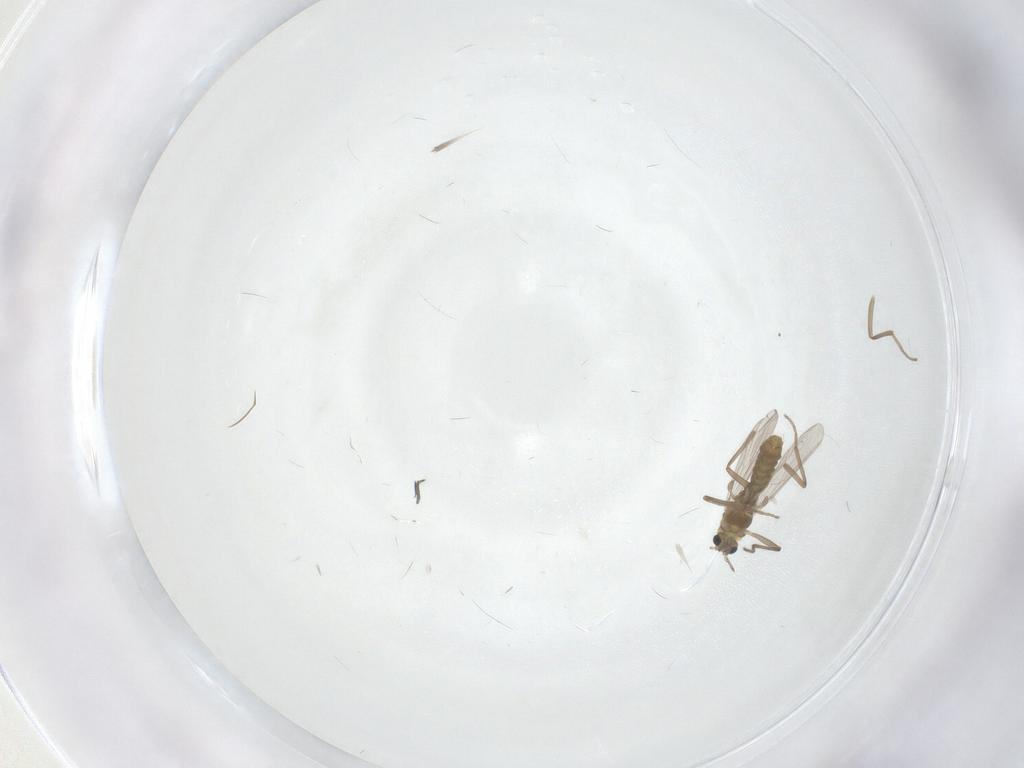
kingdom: Animalia
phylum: Arthropoda
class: Insecta
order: Diptera
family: Chironomidae
